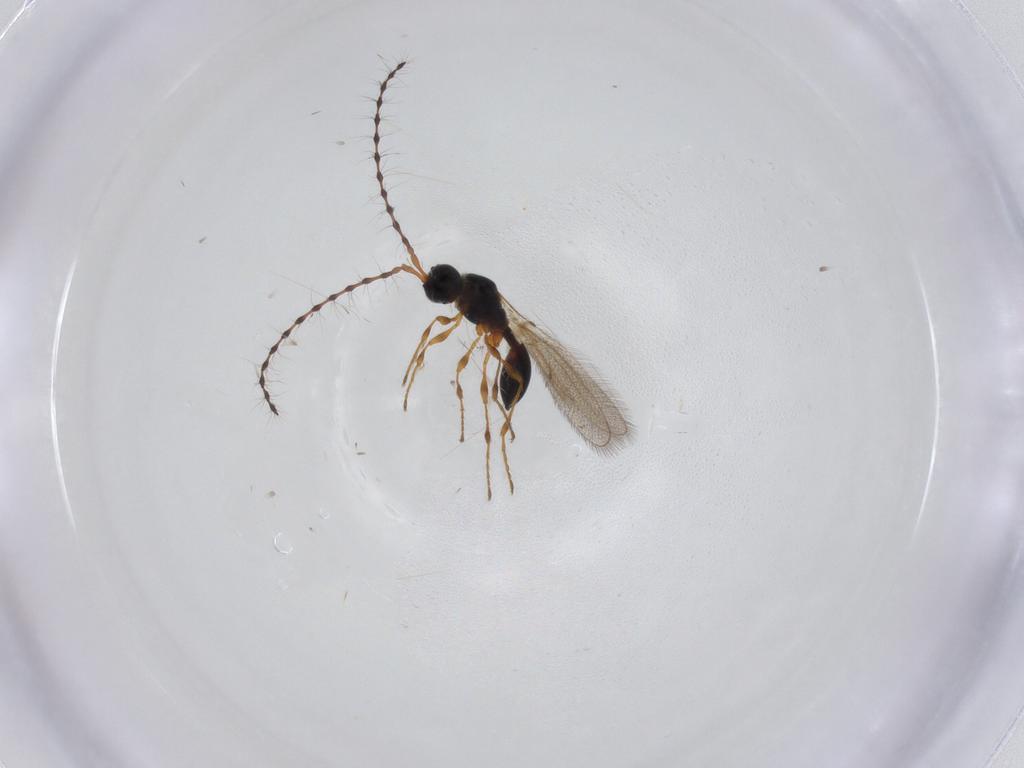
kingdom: Animalia
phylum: Arthropoda
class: Insecta
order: Hymenoptera
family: Diapriidae
